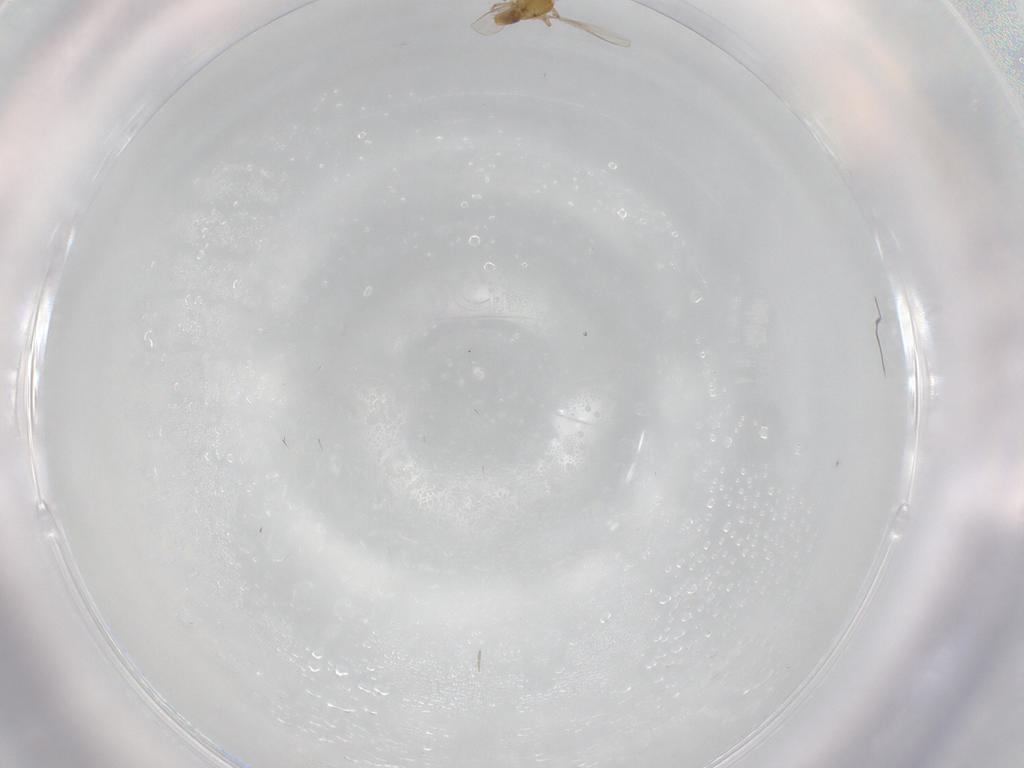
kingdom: Animalia
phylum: Arthropoda
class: Insecta
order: Diptera
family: Chironomidae
